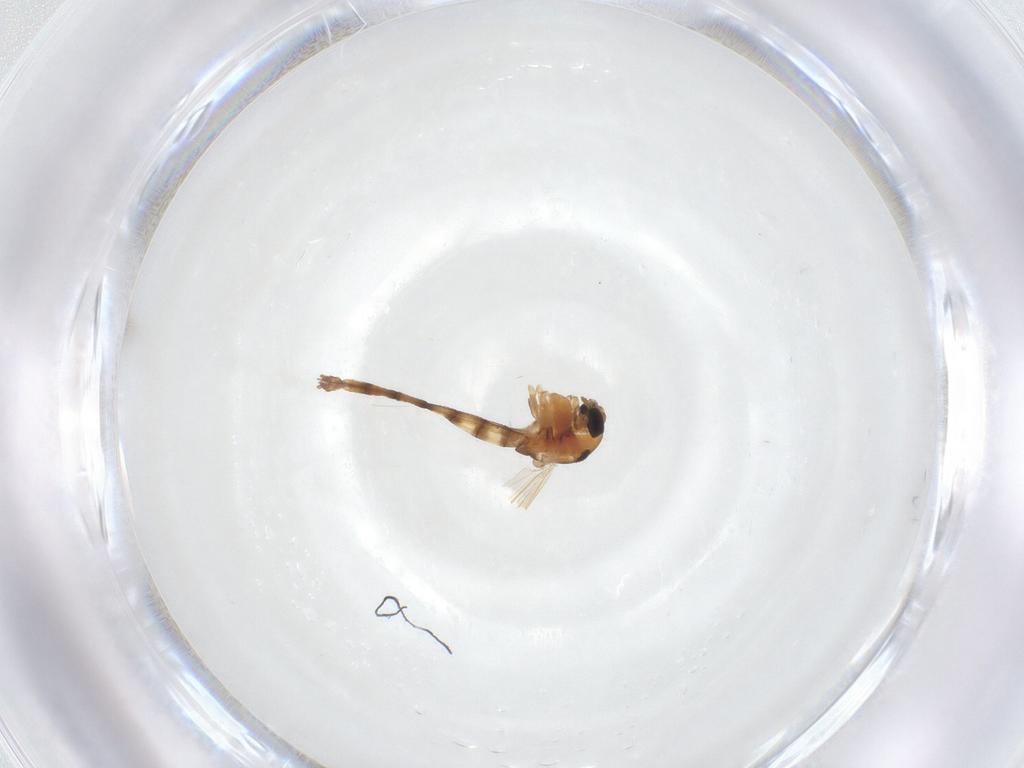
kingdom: Animalia
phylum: Arthropoda
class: Insecta
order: Diptera
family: Chironomidae
